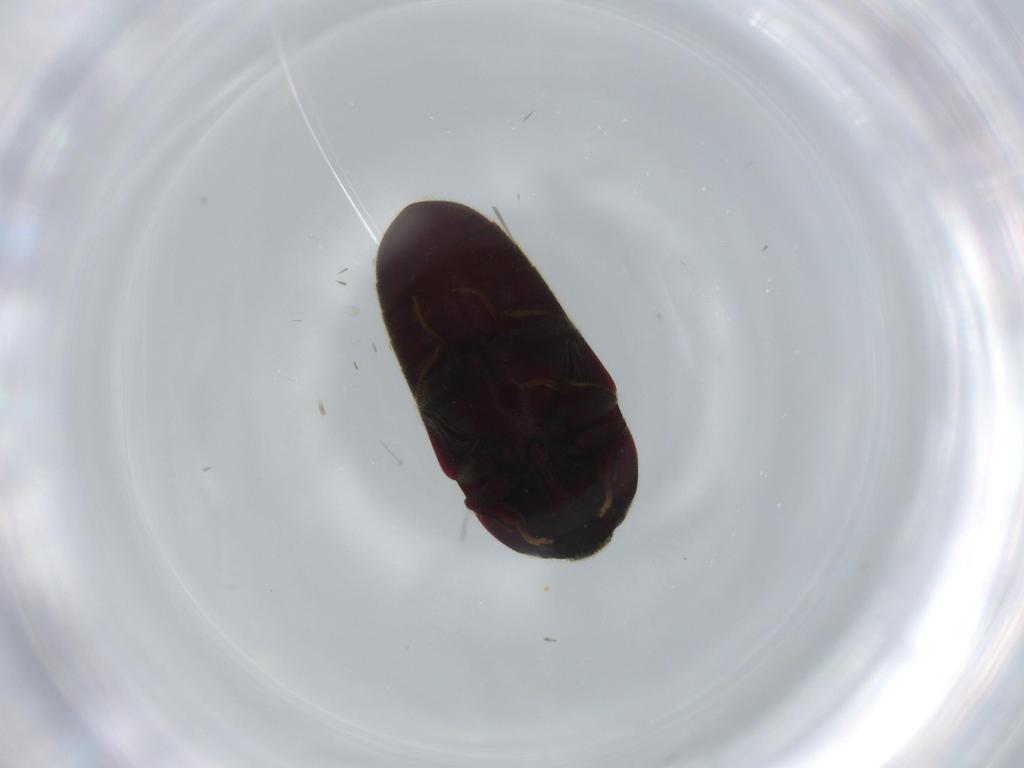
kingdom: Animalia
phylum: Arthropoda
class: Insecta
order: Coleoptera
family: Throscidae
